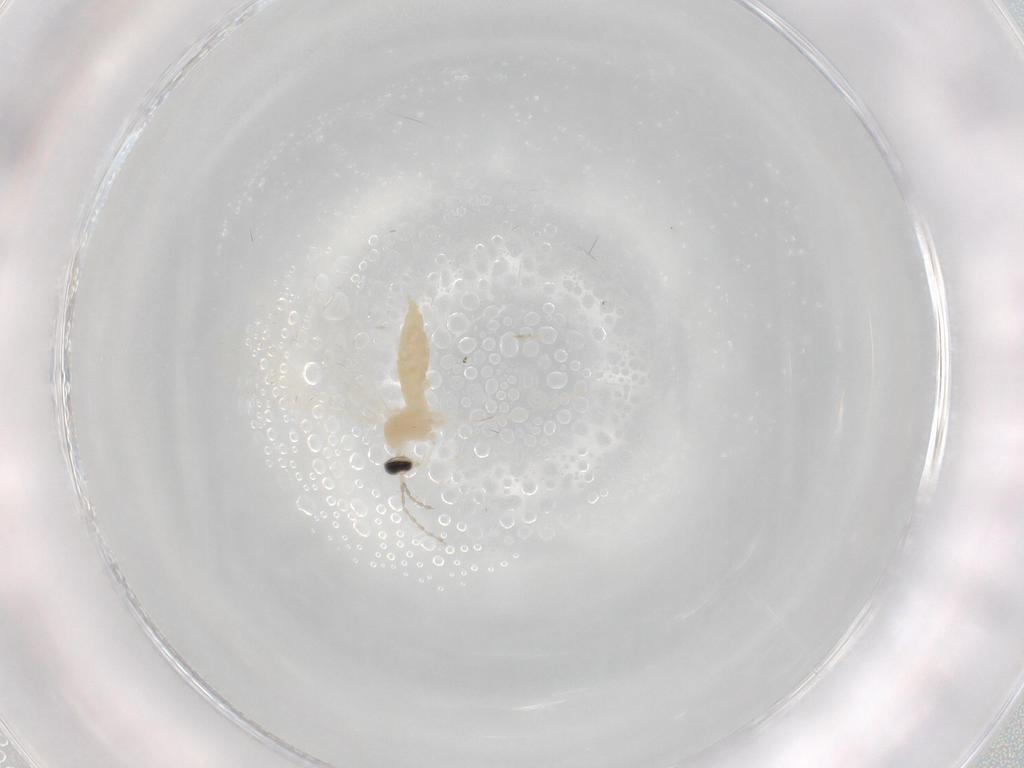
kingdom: Animalia
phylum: Arthropoda
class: Insecta
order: Diptera
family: Cecidomyiidae
